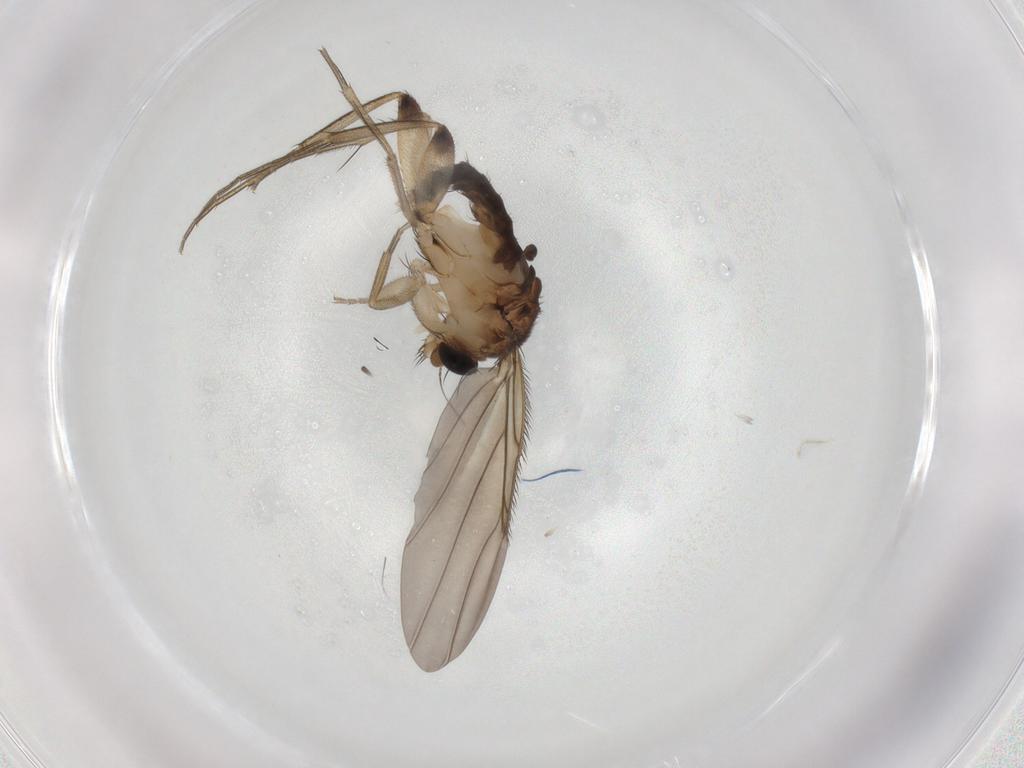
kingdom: Animalia
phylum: Arthropoda
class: Insecta
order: Diptera
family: Phoridae
